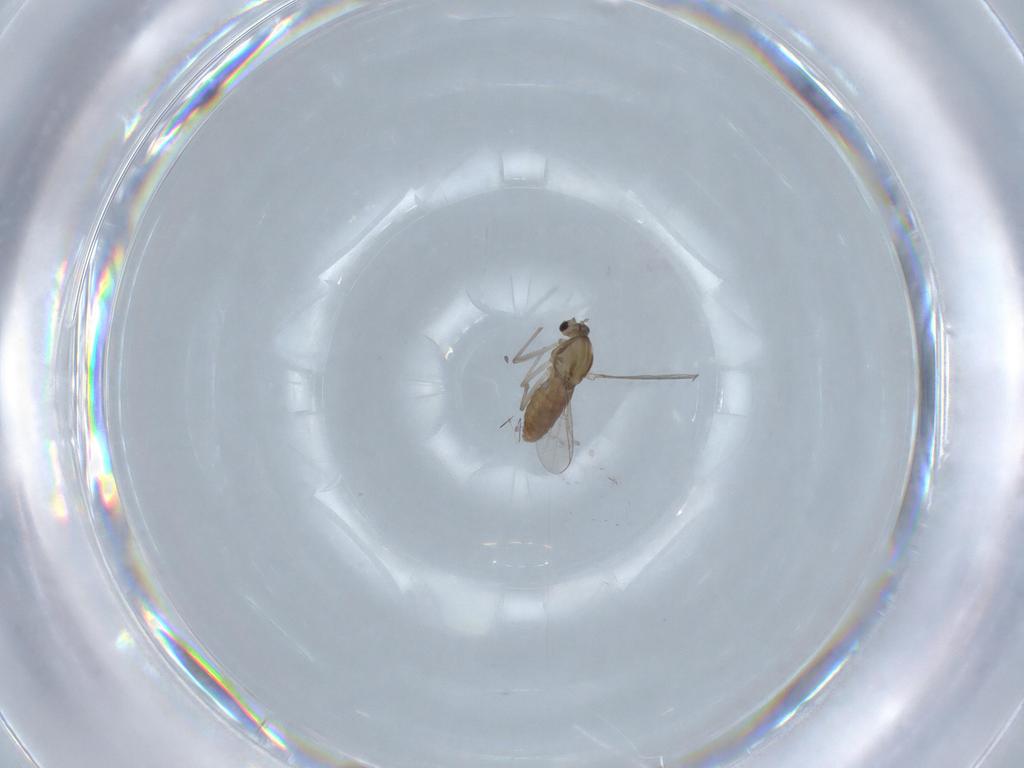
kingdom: Animalia
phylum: Arthropoda
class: Insecta
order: Diptera
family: Chironomidae
